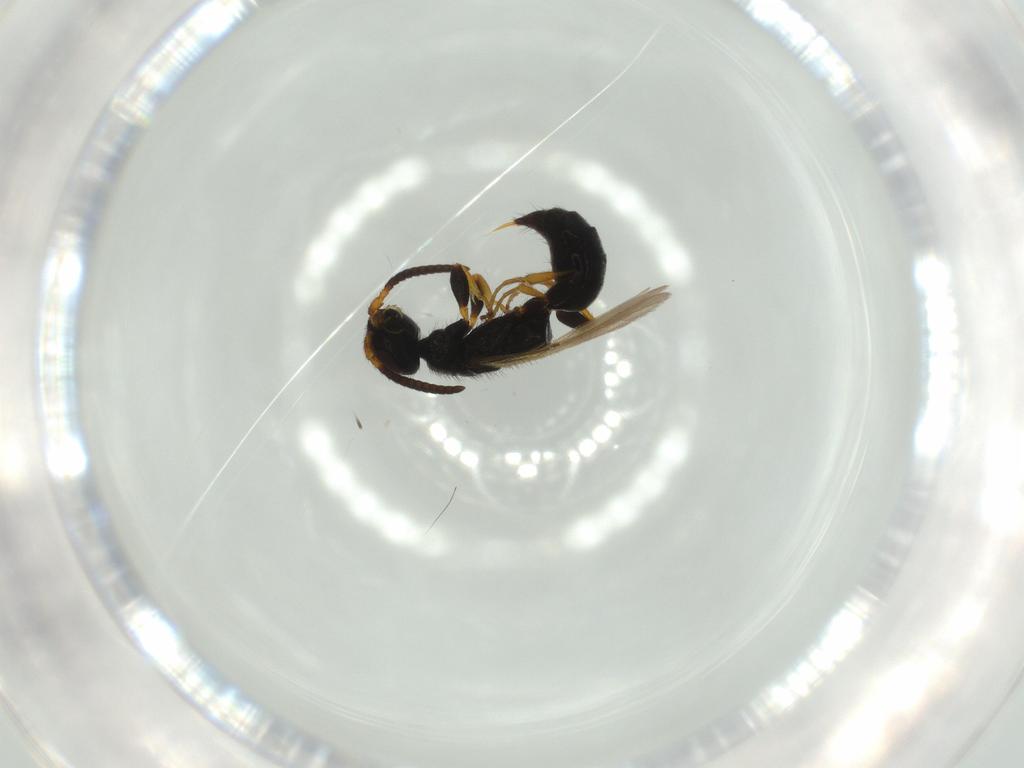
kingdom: Animalia
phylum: Arthropoda
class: Insecta
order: Hymenoptera
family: Bethylidae
